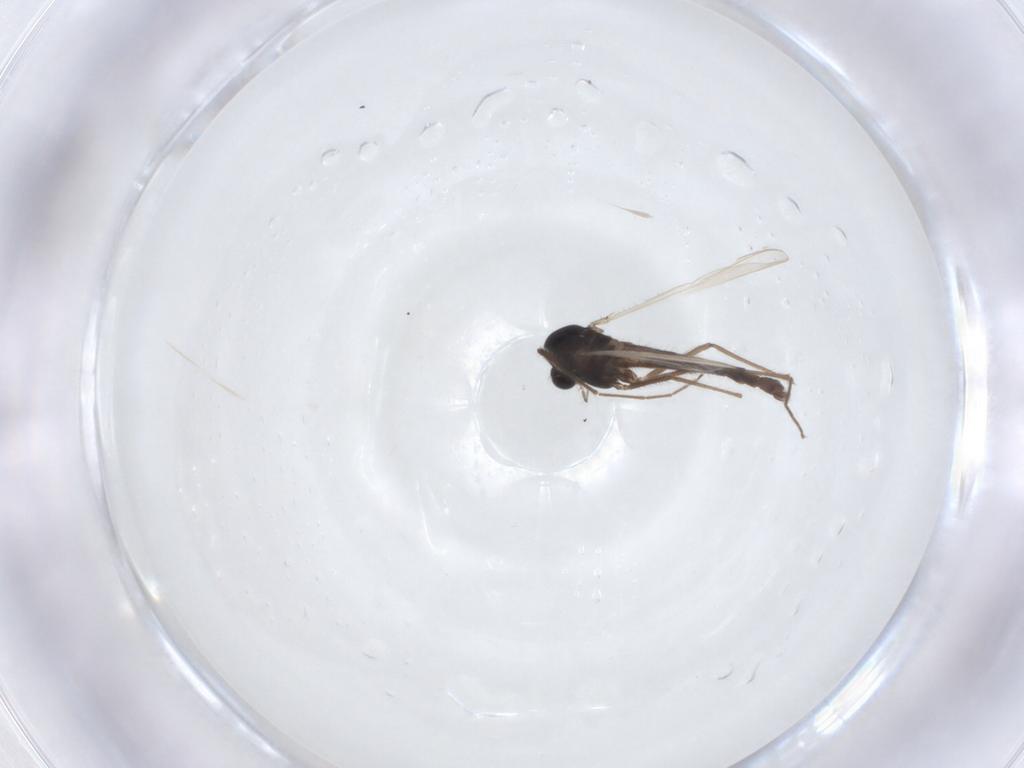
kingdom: Animalia
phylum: Arthropoda
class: Insecta
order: Diptera
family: Chironomidae
